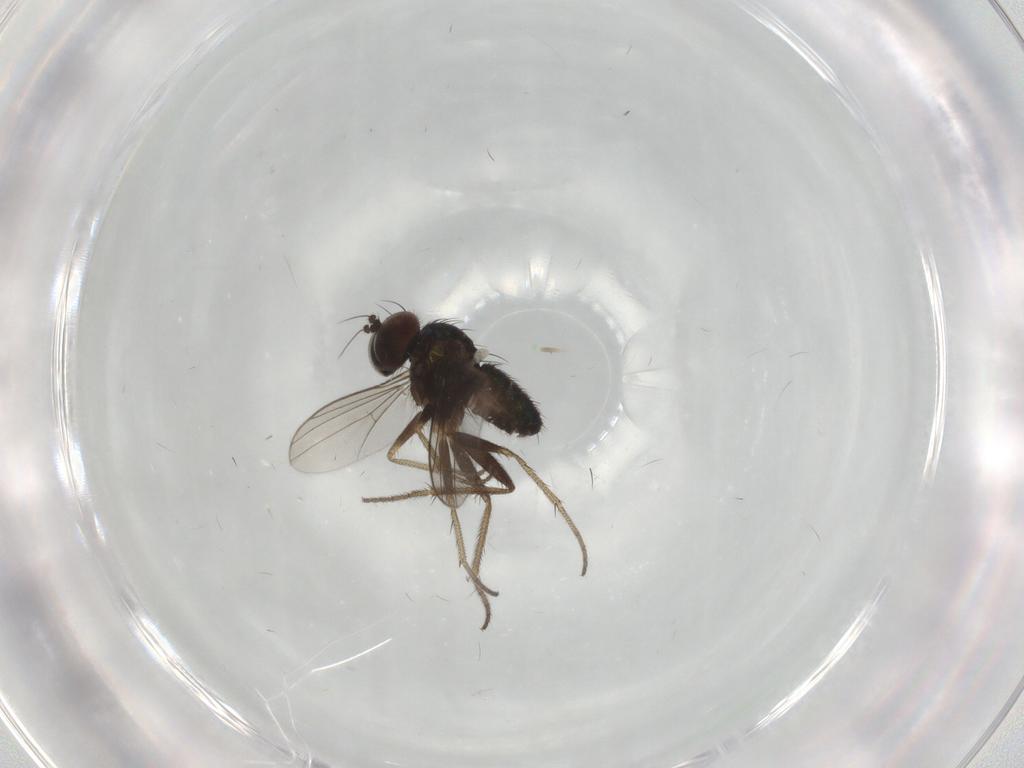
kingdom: Animalia
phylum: Arthropoda
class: Insecta
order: Diptera
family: Dolichopodidae
